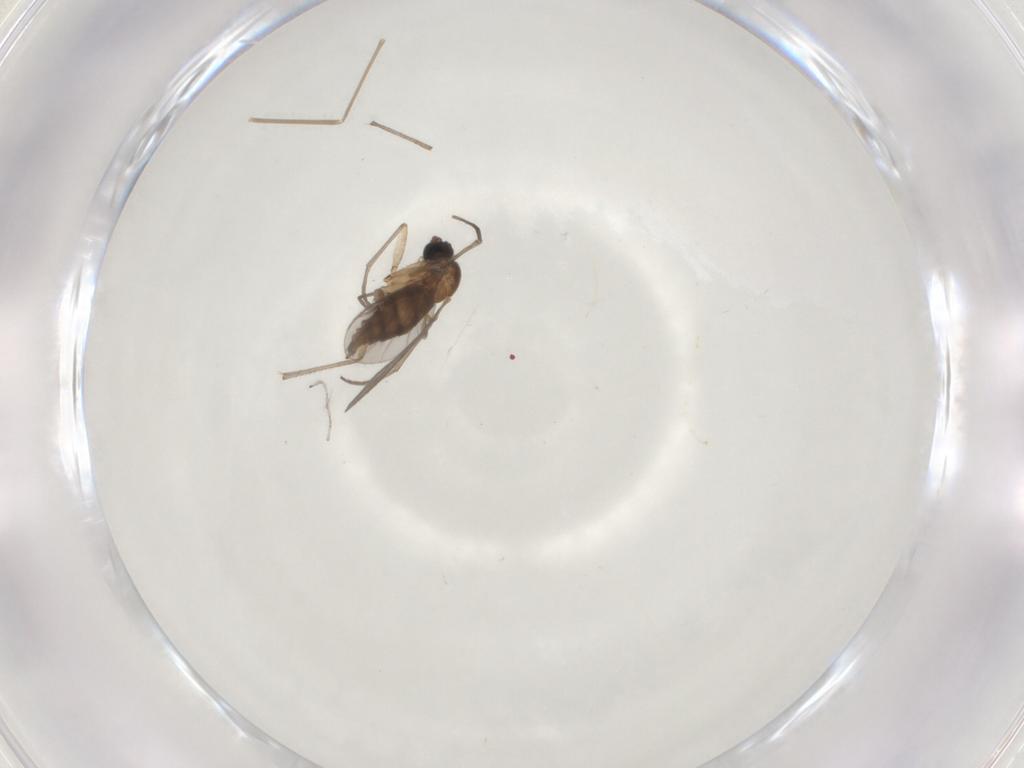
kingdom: Animalia
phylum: Arthropoda
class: Insecta
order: Diptera
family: Sciaridae
